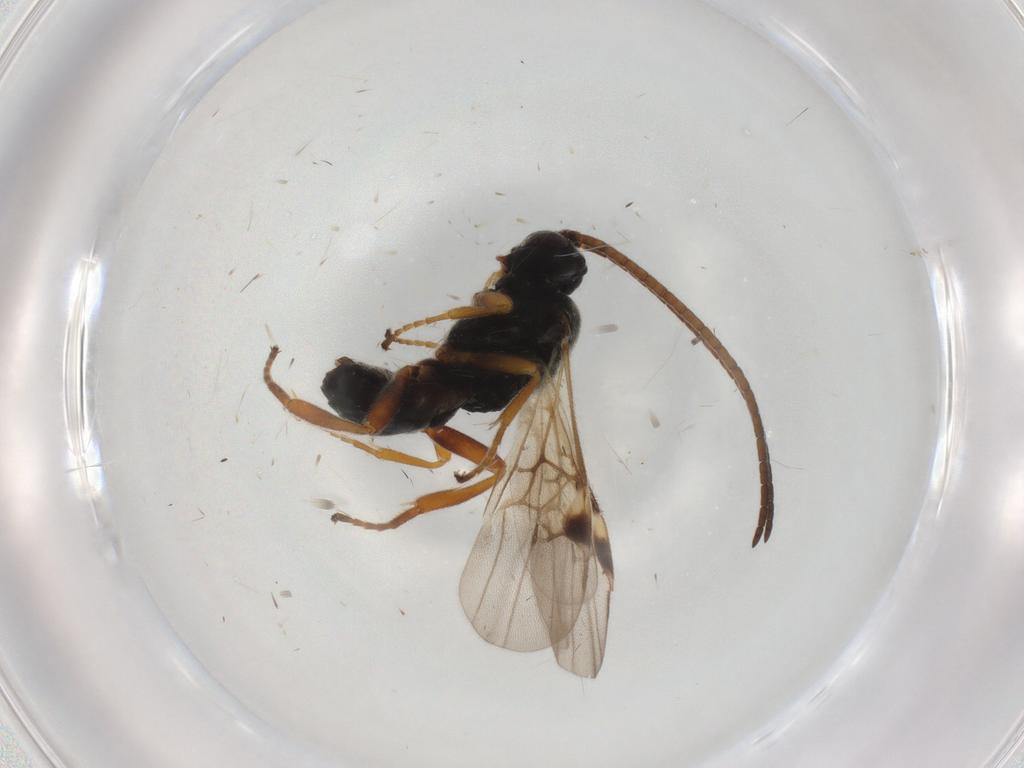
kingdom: Animalia
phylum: Arthropoda
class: Insecta
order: Hymenoptera
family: Braconidae
